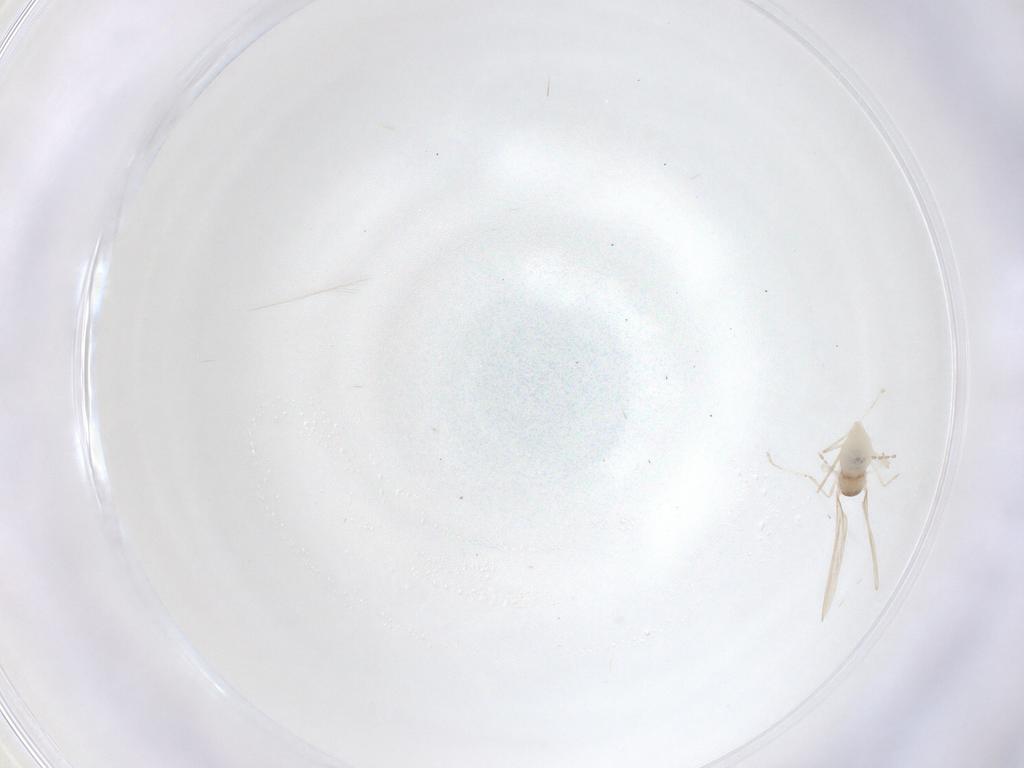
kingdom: Animalia
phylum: Arthropoda
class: Insecta
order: Diptera
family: Cecidomyiidae
